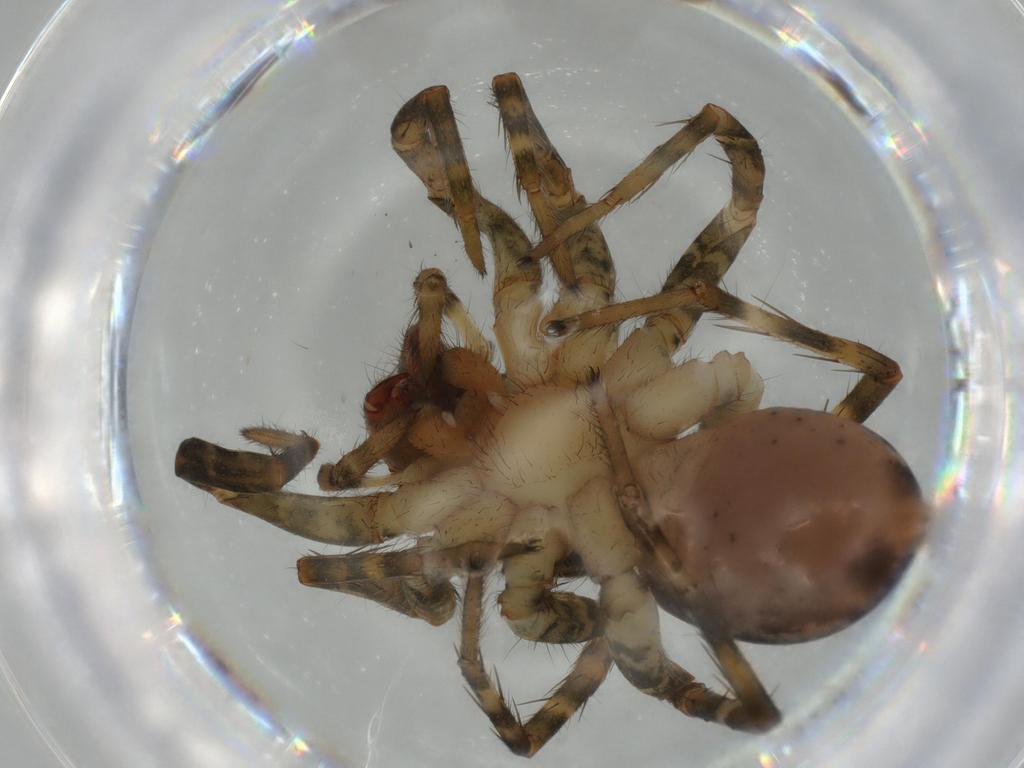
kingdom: Animalia
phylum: Arthropoda
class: Arachnida
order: Araneae
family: Lycosidae
